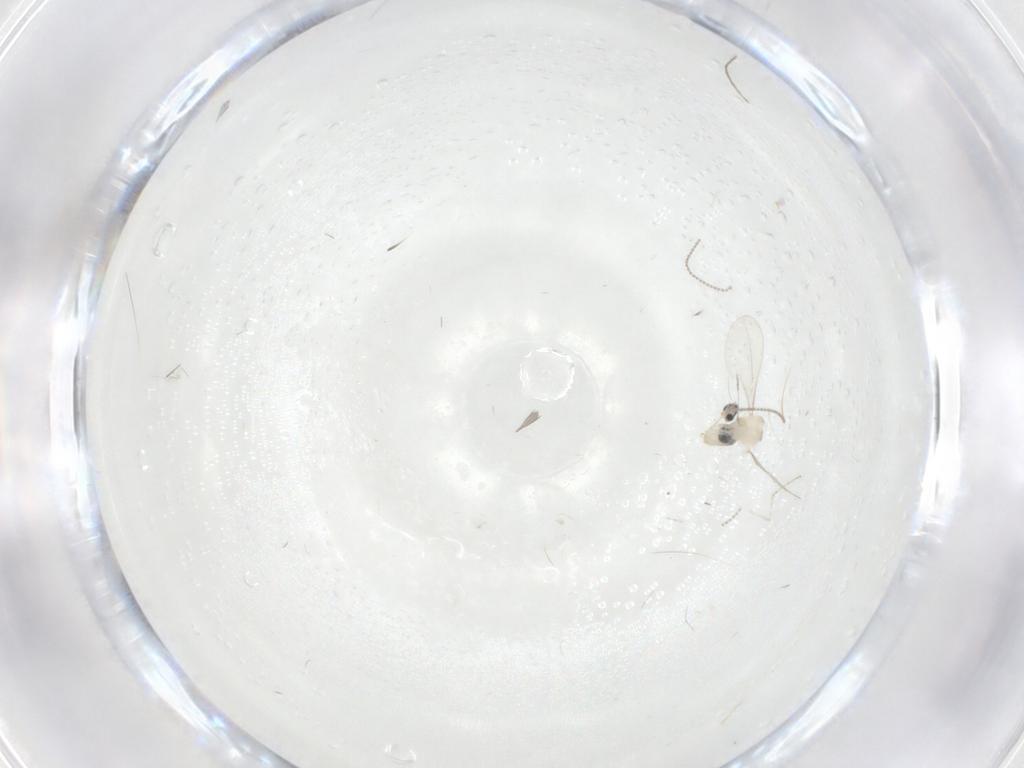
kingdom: Animalia
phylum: Arthropoda
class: Insecta
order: Diptera
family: Chironomidae
